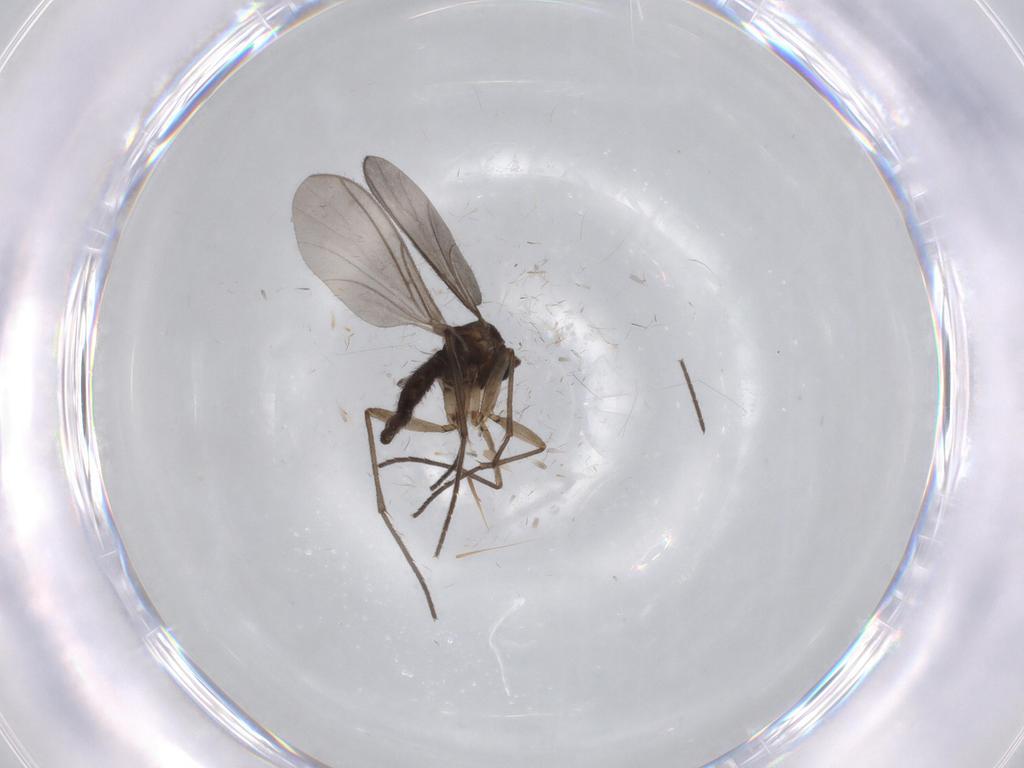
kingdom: Animalia
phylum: Arthropoda
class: Insecta
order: Diptera
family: Sciaridae
